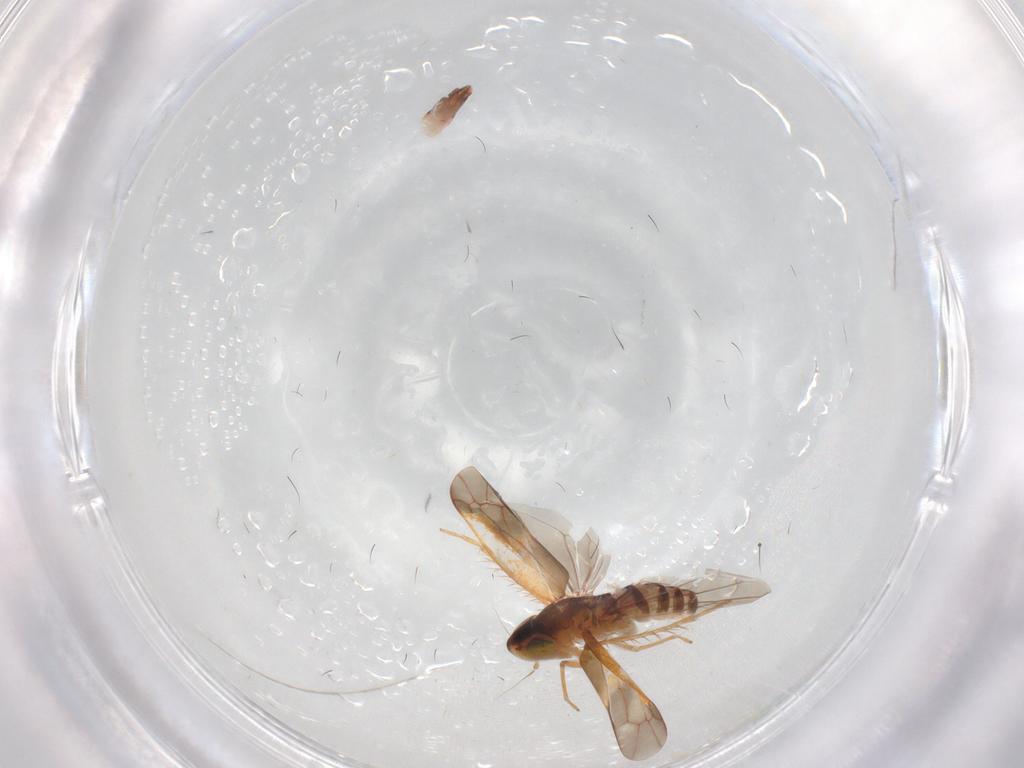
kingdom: Animalia
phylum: Arthropoda
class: Insecta
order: Hemiptera
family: Cicadellidae
